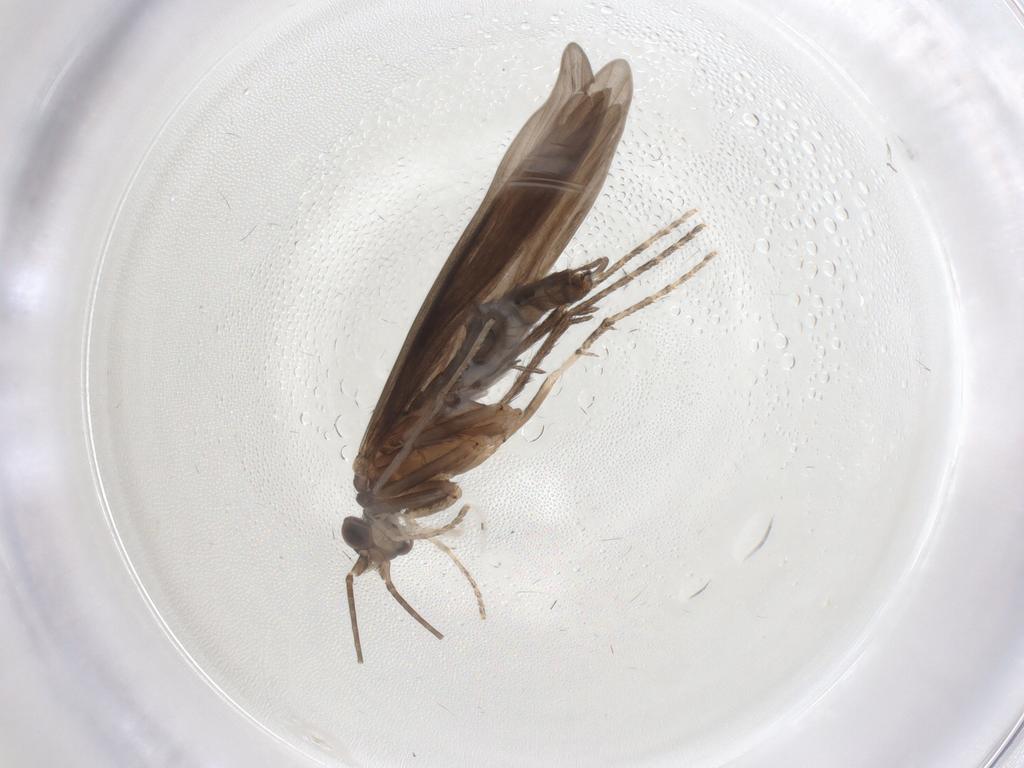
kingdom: Animalia
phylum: Arthropoda
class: Insecta
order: Trichoptera
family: Xiphocentronidae
